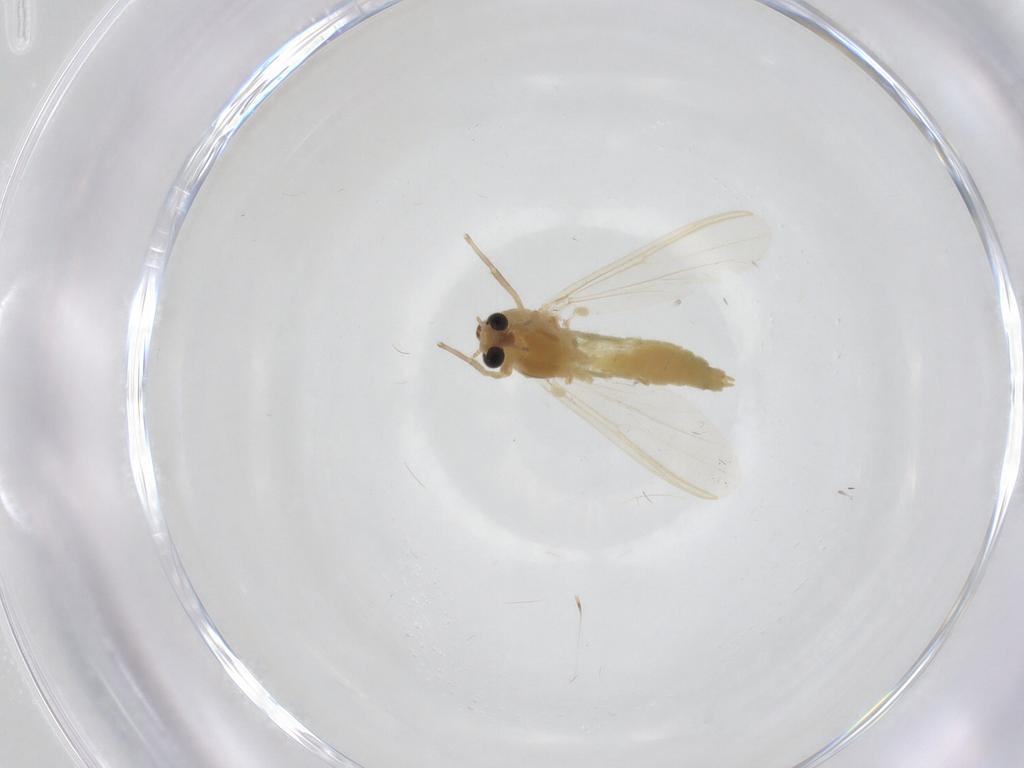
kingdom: Animalia
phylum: Arthropoda
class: Insecta
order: Diptera
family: Chironomidae
